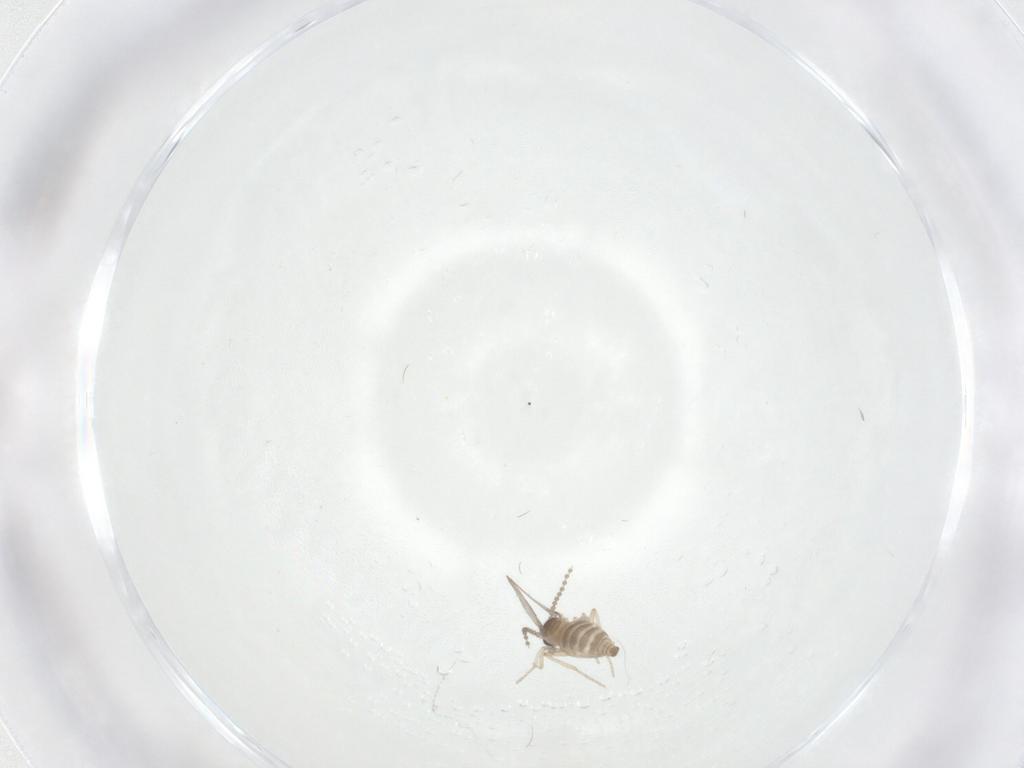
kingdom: Animalia
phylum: Arthropoda
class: Insecta
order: Diptera
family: Cecidomyiidae
